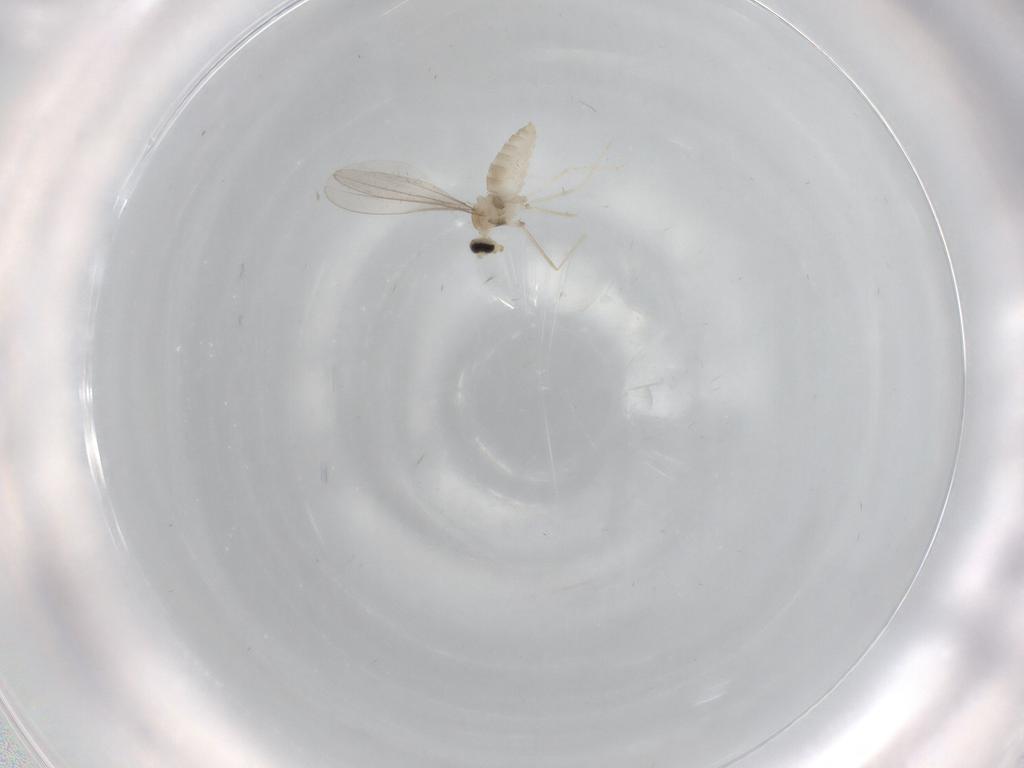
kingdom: Animalia
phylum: Arthropoda
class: Insecta
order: Diptera
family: Cecidomyiidae
